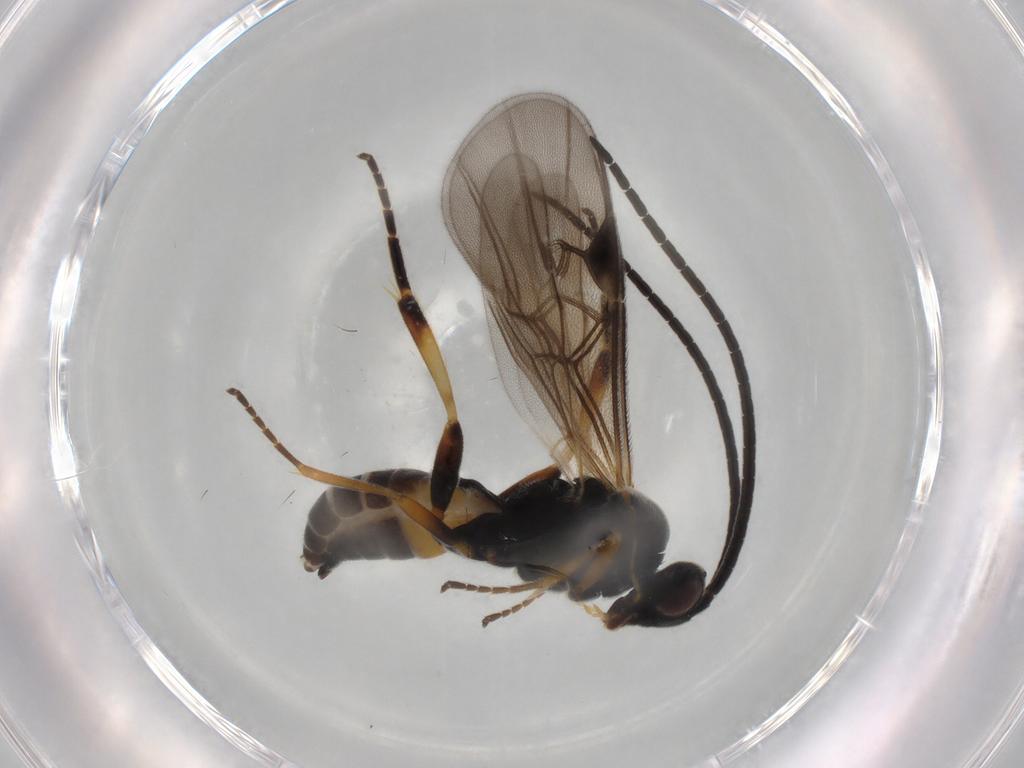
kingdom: Animalia
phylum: Arthropoda
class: Insecta
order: Hymenoptera
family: Braconidae
